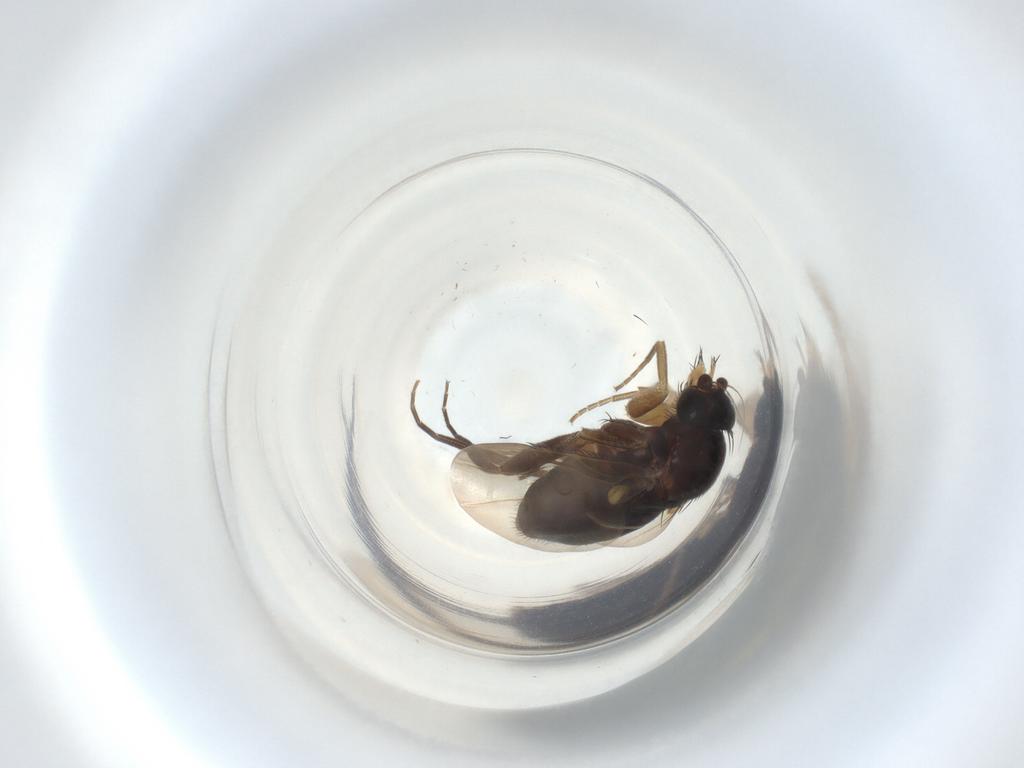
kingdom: Animalia
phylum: Arthropoda
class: Insecta
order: Diptera
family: Phoridae
